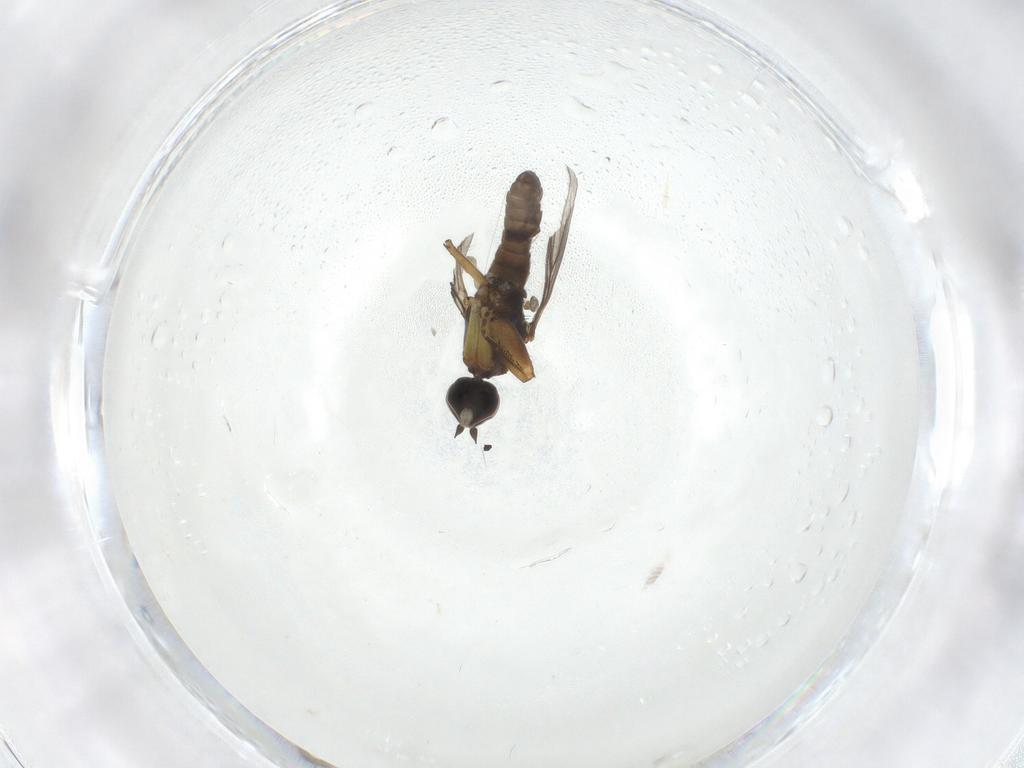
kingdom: Animalia
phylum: Arthropoda
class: Insecta
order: Diptera
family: Empididae
